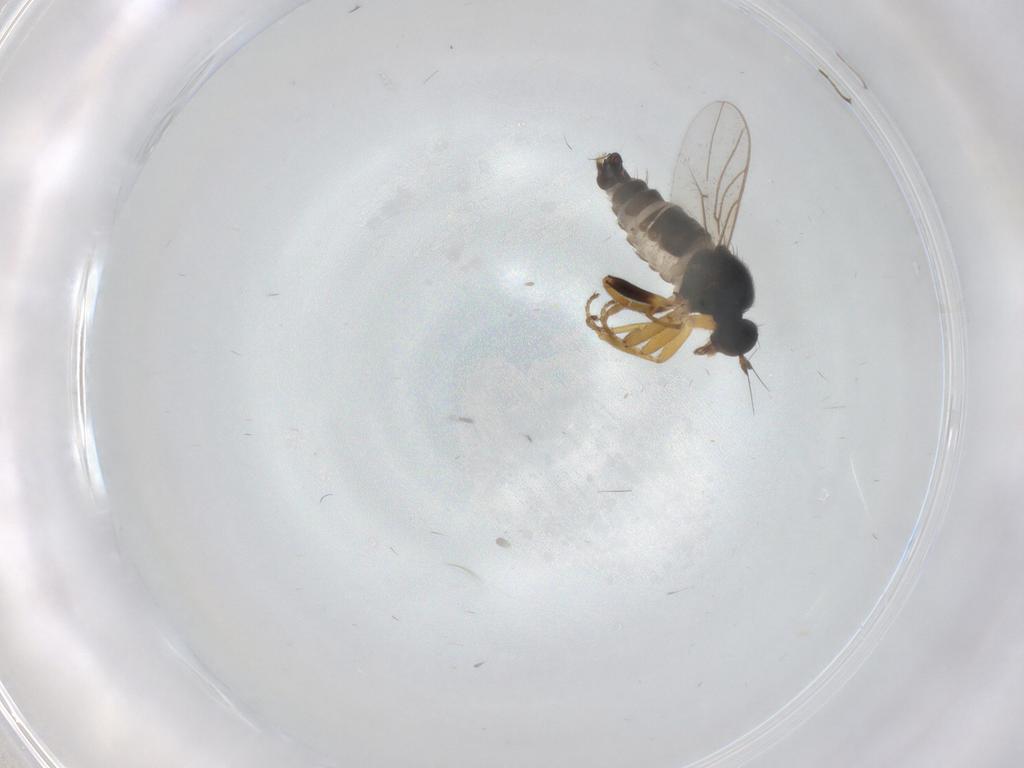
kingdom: Animalia
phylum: Arthropoda
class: Insecta
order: Diptera
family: Hybotidae
